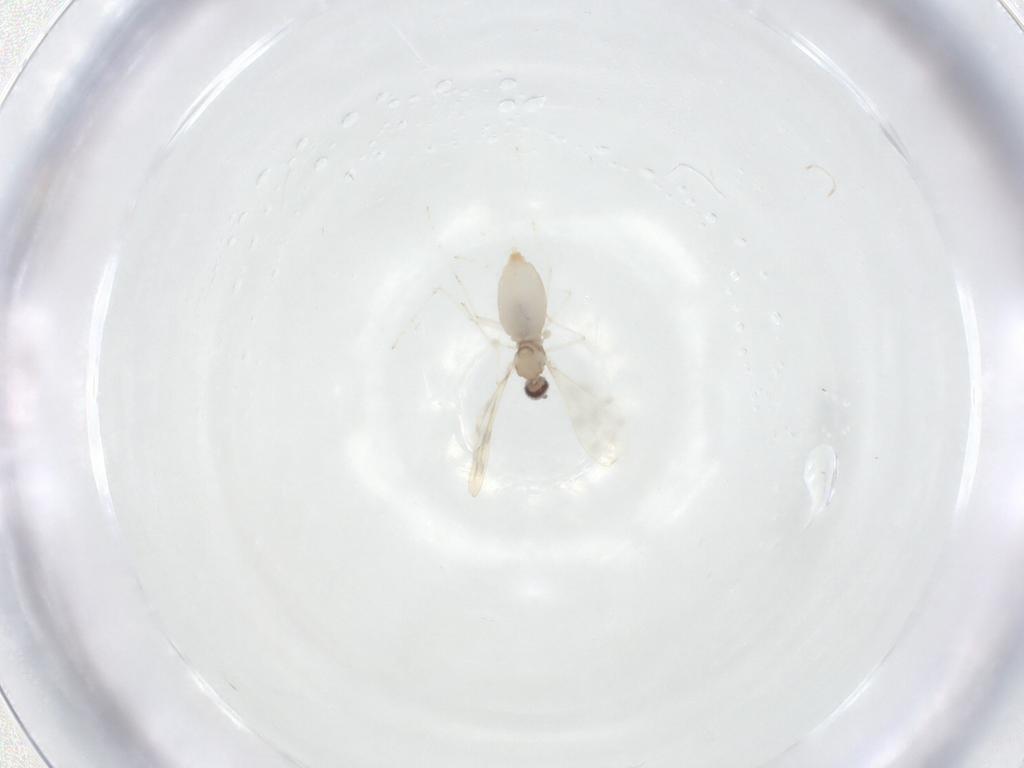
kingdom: Animalia
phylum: Arthropoda
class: Insecta
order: Diptera
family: Cecidomyiidae
